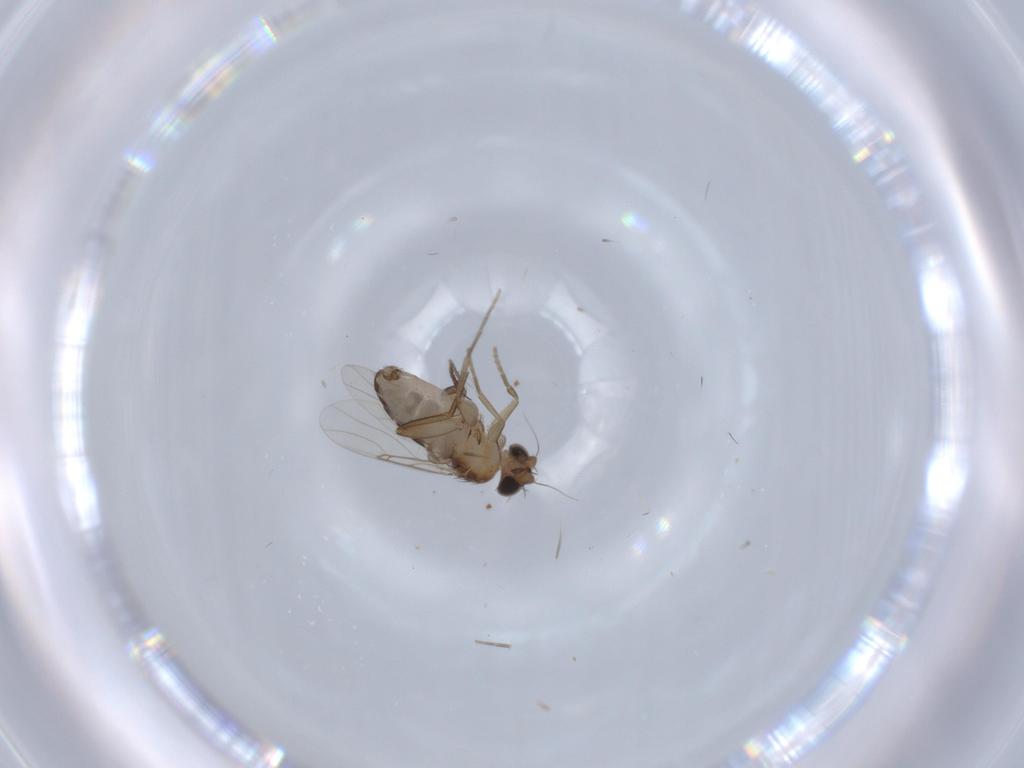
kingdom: Animalia
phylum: Arthropoda
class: Insecta
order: Diptera
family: Phoridae
